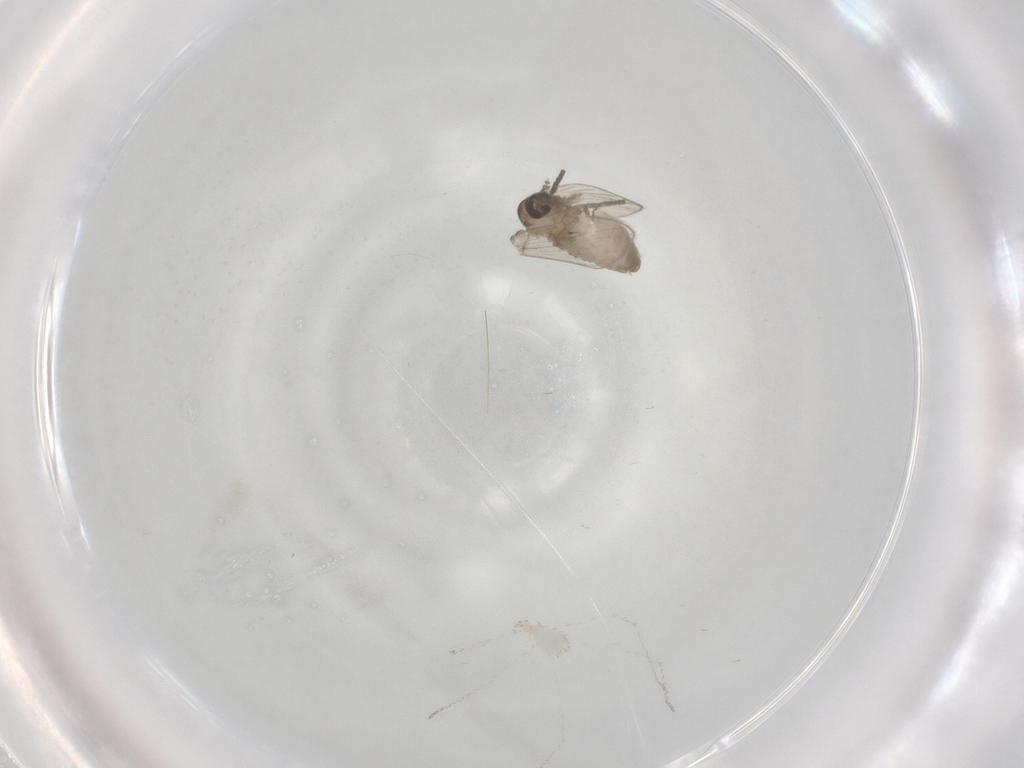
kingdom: Animalia
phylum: Arthropoda
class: Insecta
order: Diptera
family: Psychodidae
